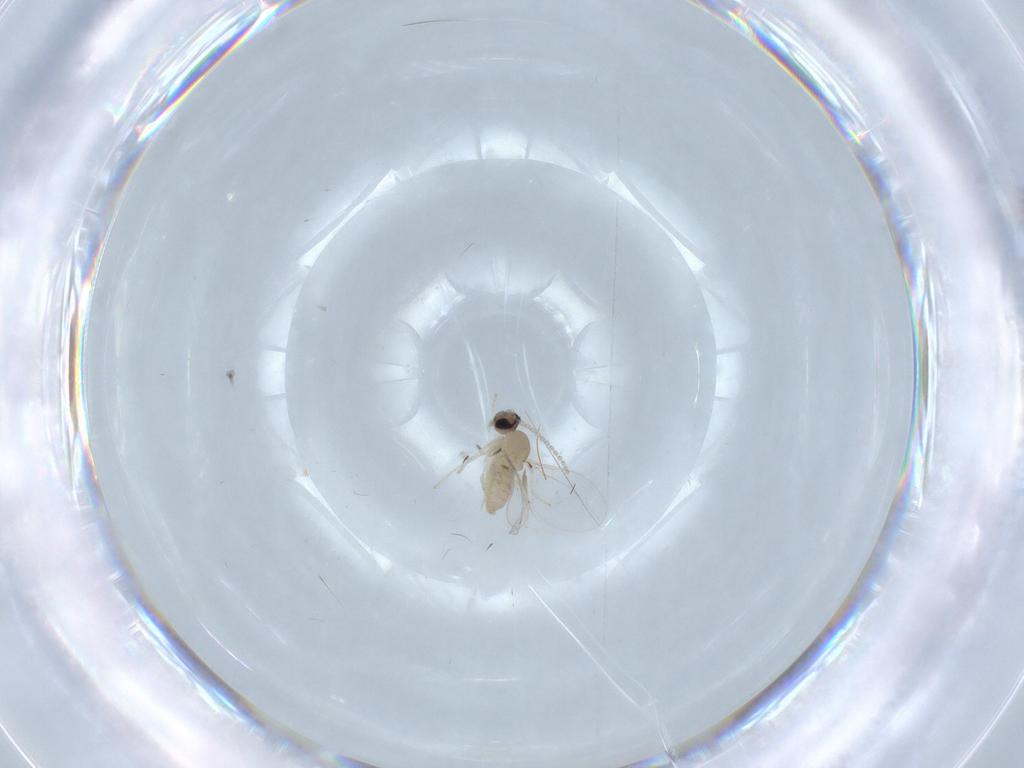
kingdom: Animalia
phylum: Arthropoda
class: Insecta
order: Diptera
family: Cecidomyiidae
